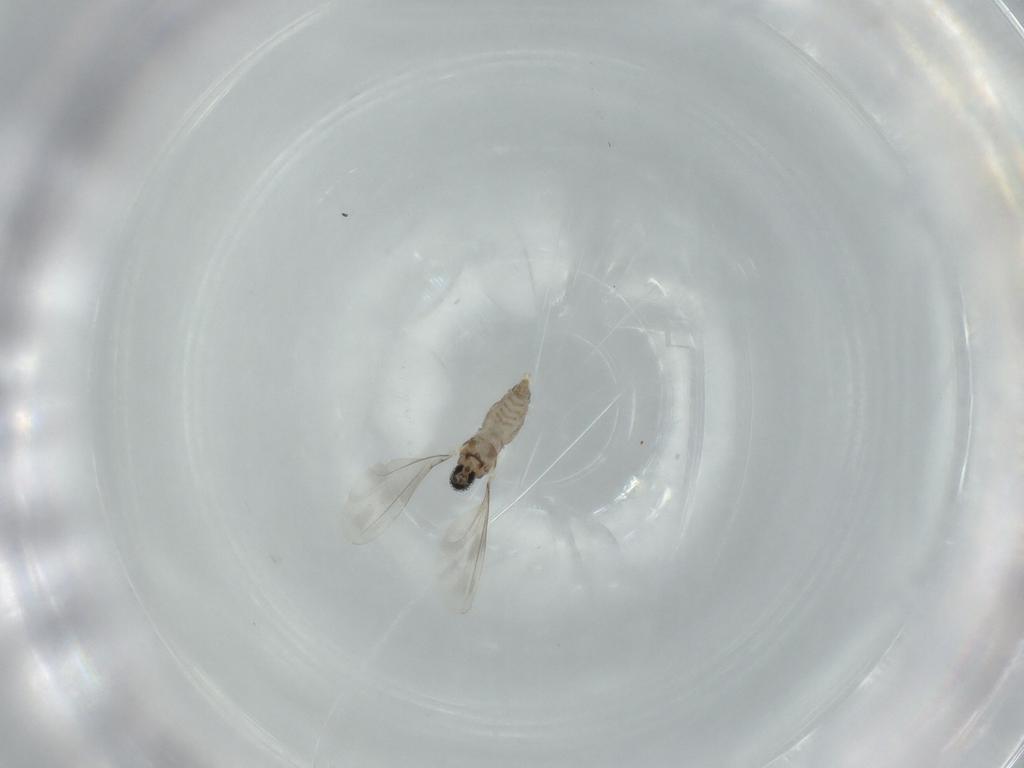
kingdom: Animalia
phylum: Arthropoda
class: Insecta
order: Diptera
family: Cecidomyiidae
